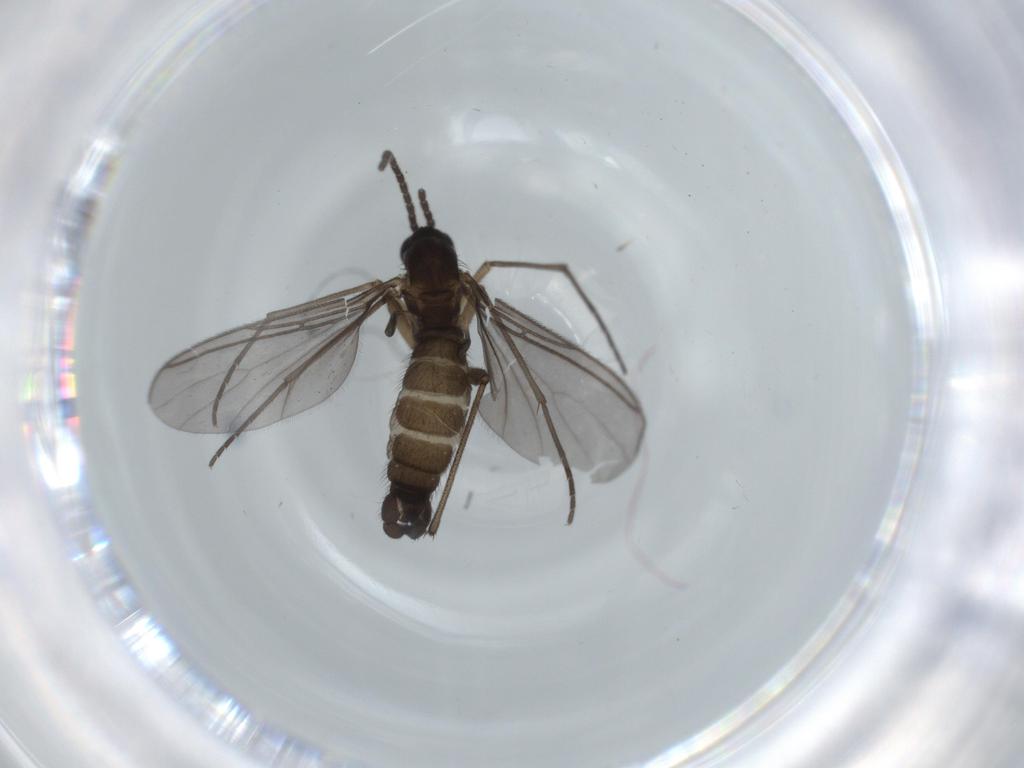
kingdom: Animalia
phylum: Arthropoda
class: Insecta
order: Diptera
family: Sciaridae
